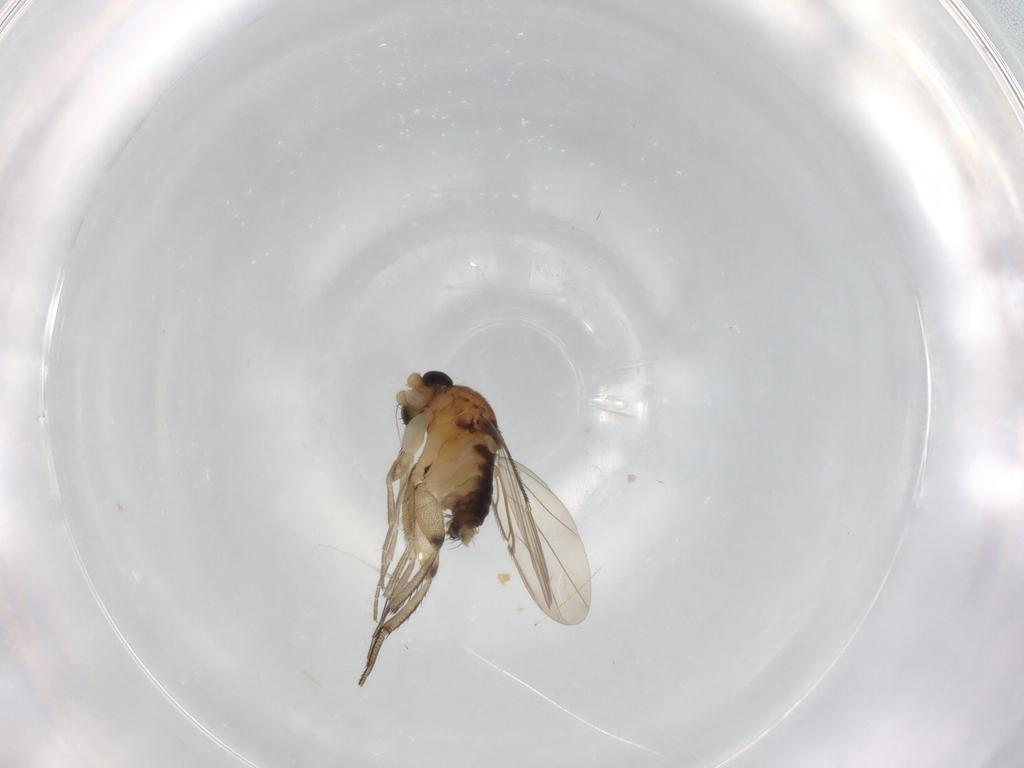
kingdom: Animalia
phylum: Arthropoda
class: Insecta
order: Diptera
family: Phoridae
